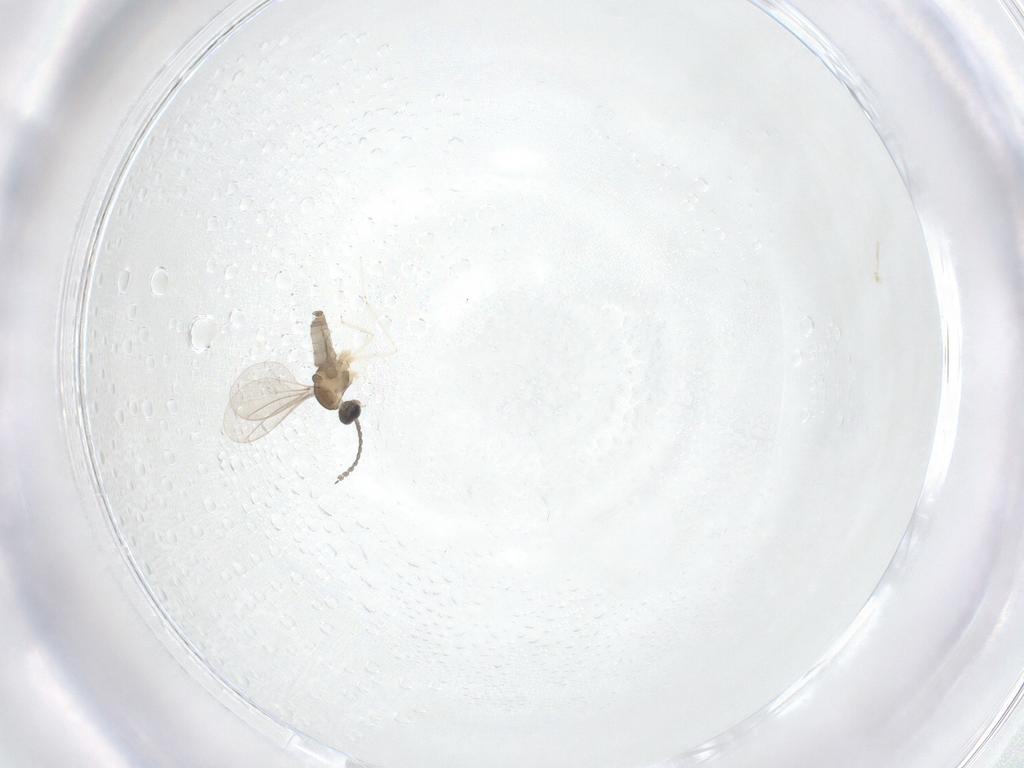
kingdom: Animalia
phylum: Arthropoda
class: Insecta
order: Diptera
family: Cecidomyiidae
